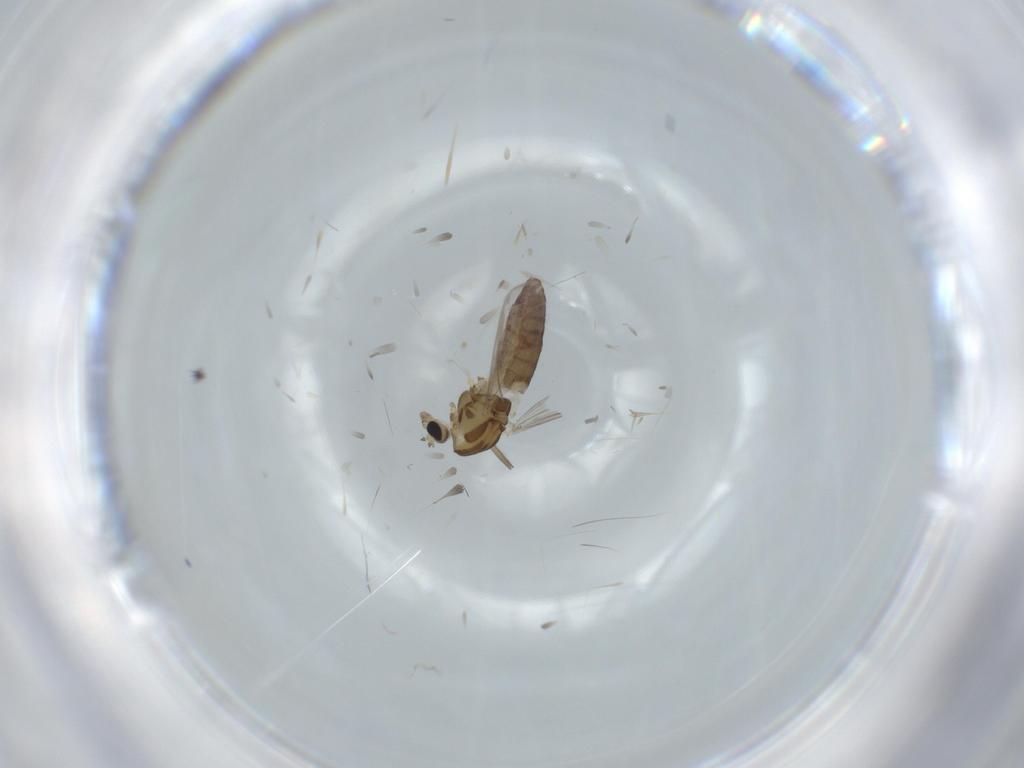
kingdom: Animalia
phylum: Arthropoda
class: Insecta
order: Diptera
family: Chironomidae
